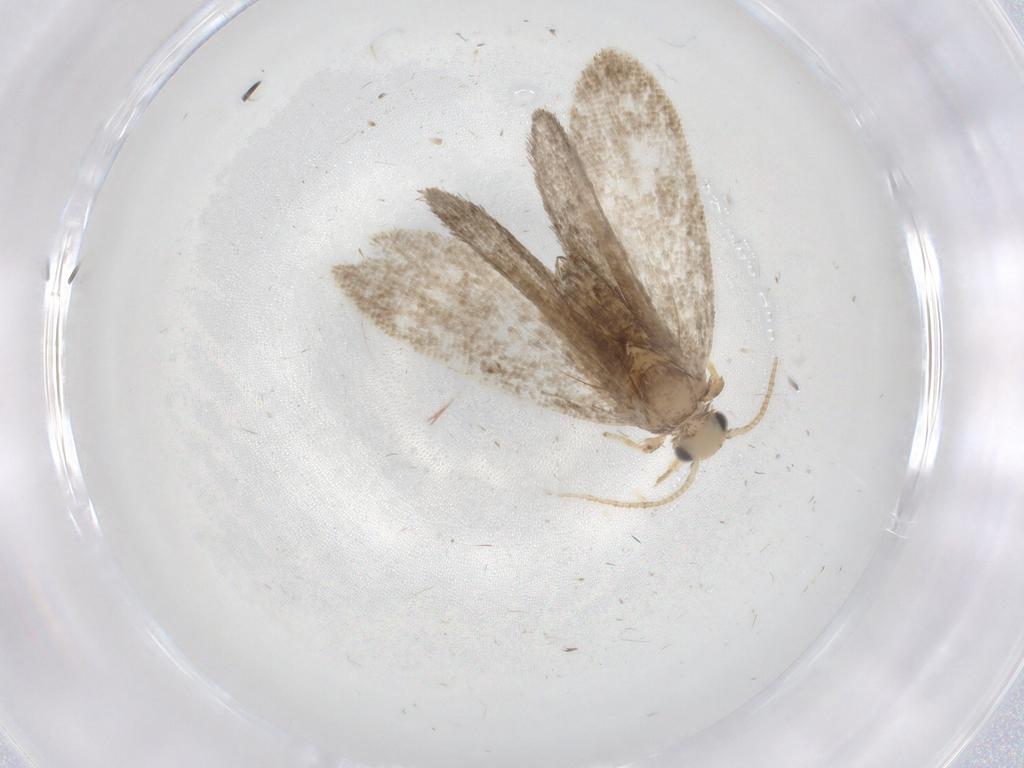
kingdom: Animalia
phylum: Arthropoda
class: Insecta
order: Lepidoptera
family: Psychidae
